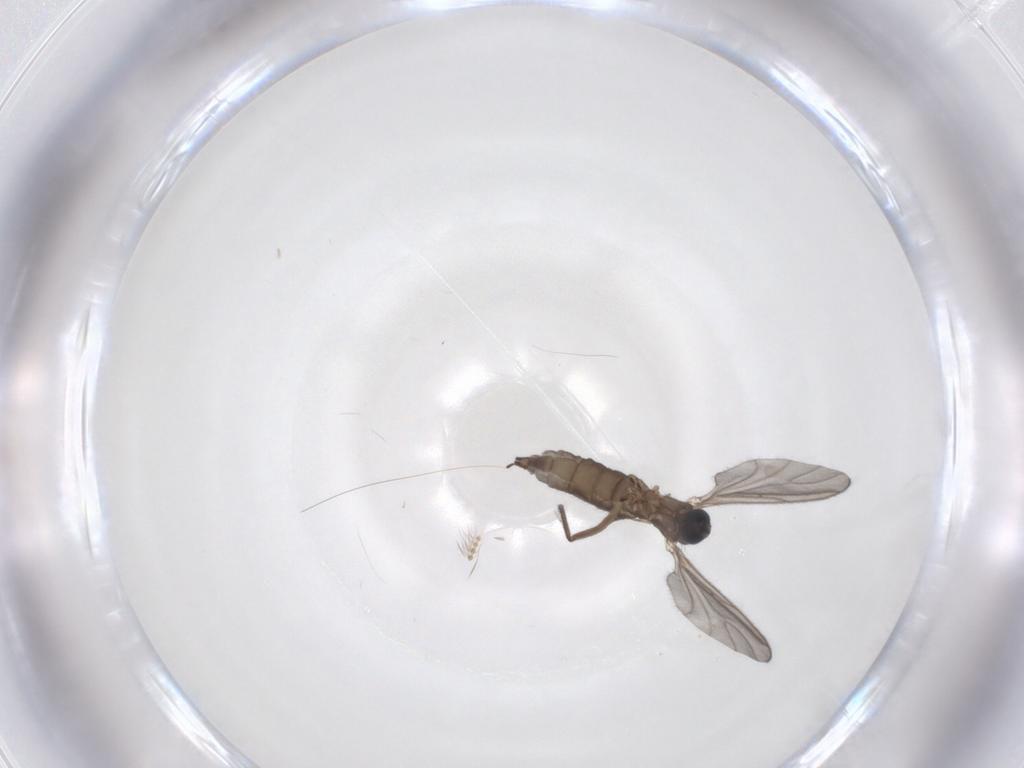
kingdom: Animalia
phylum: Arthropoda
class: Insecta
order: Diptera
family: Sciaridae
